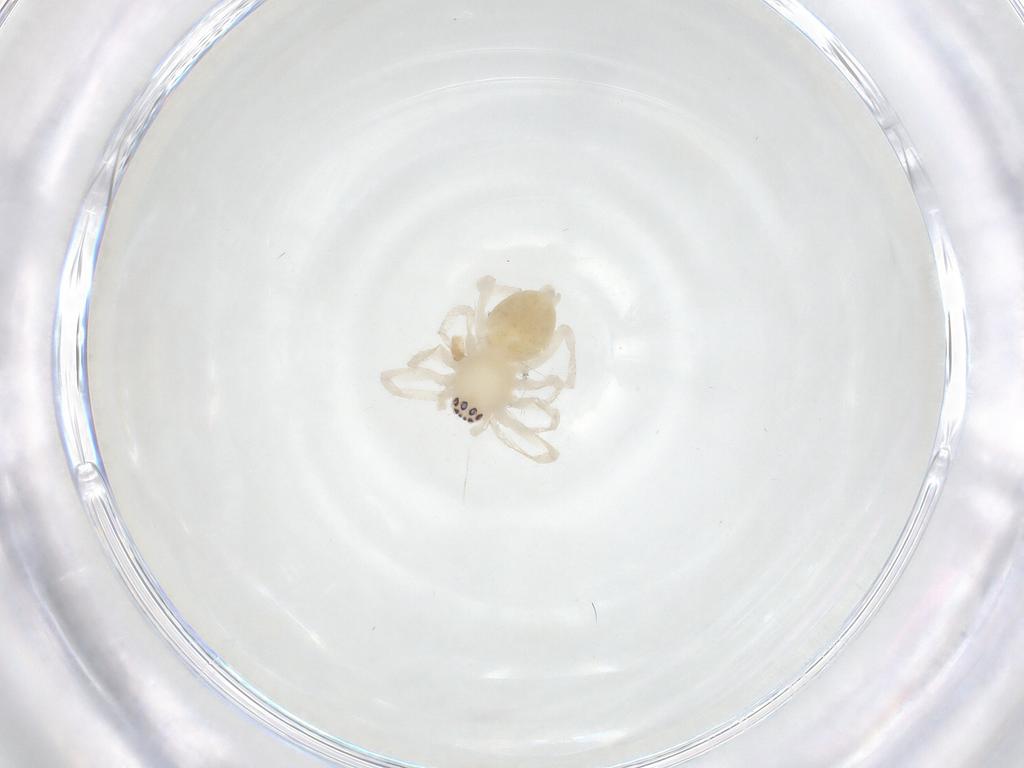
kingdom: Animalia
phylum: Arthropoda
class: Arachnida
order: Araneae
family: Anyphaenidae
